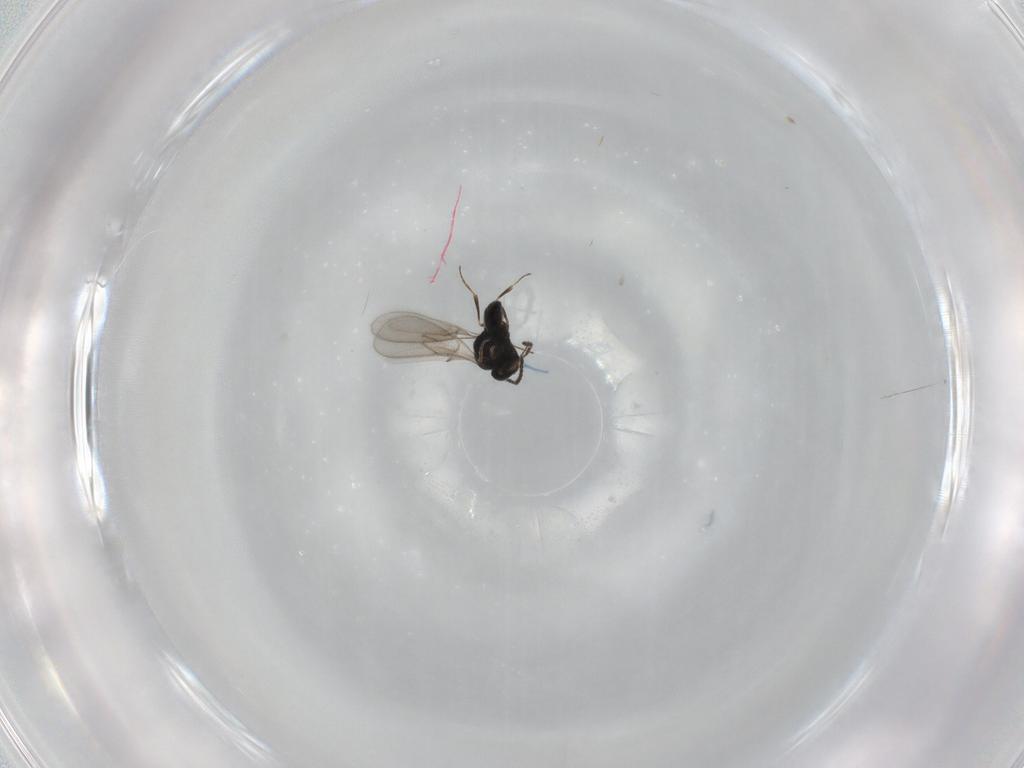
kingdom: Animalia
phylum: Arthropoda
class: Insecta
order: Hymenoptera
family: Scelionidae
